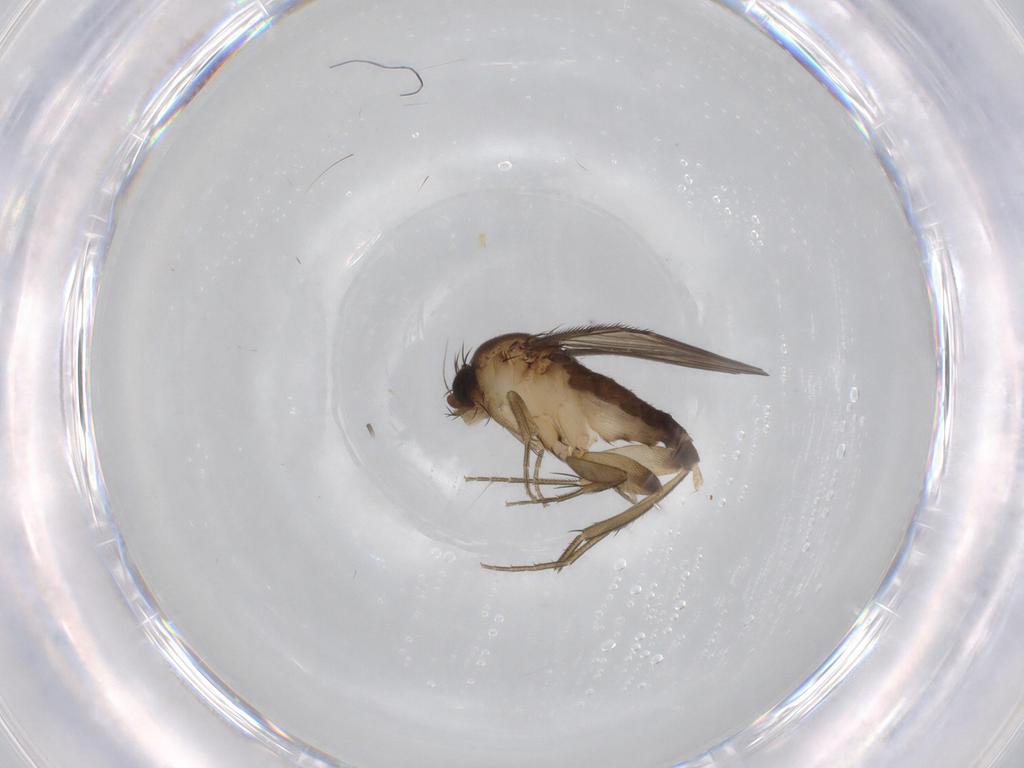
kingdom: Animalia
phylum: Arthropoda
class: Insecta
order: Diptera
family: Phoridae
